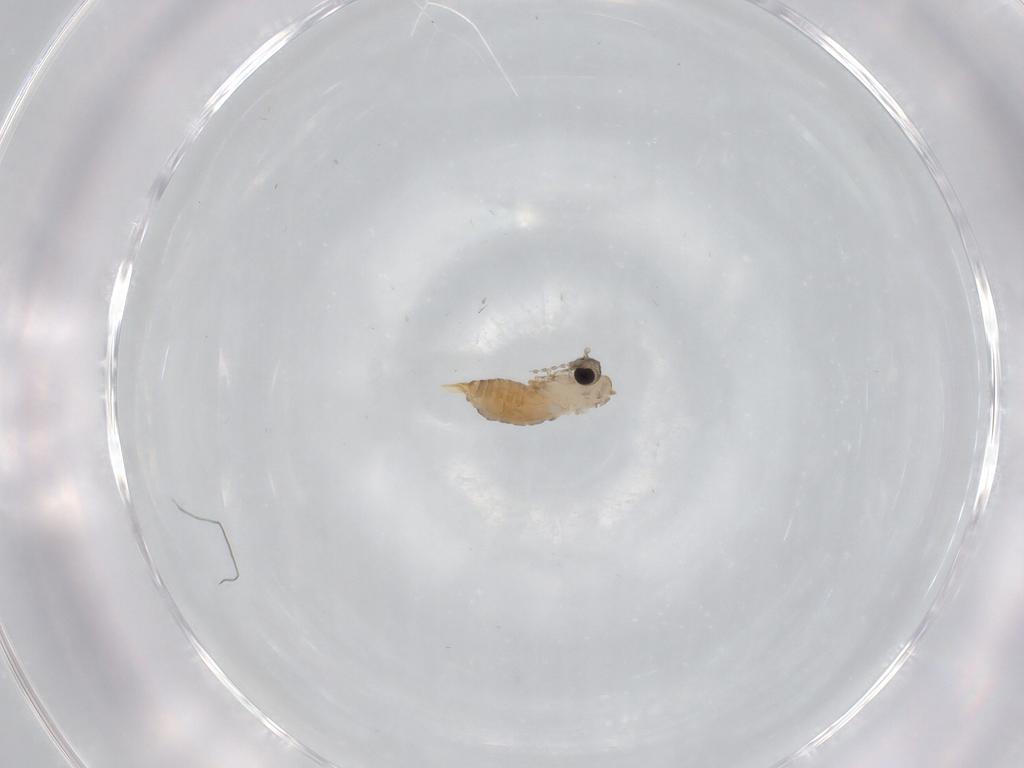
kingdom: Animalia
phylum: Arthropoda
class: Insecta
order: Diptera
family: Psychodidae
